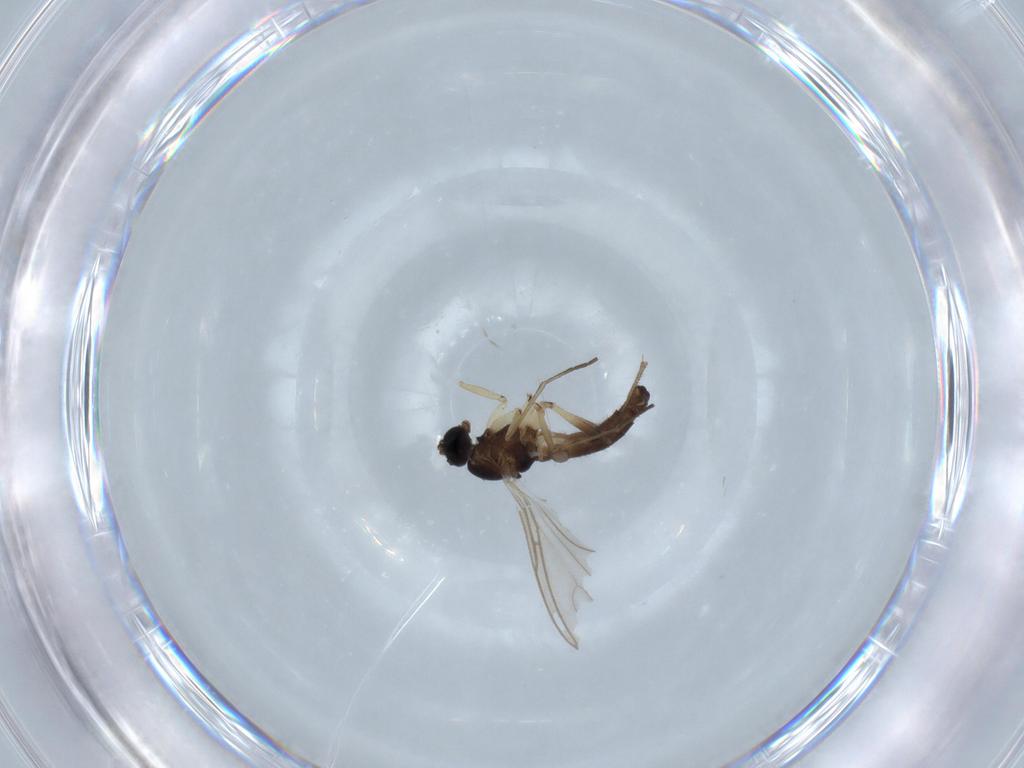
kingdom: Animalia
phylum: Arthropoda
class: Insecta
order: Diptera
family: Sciaridae
